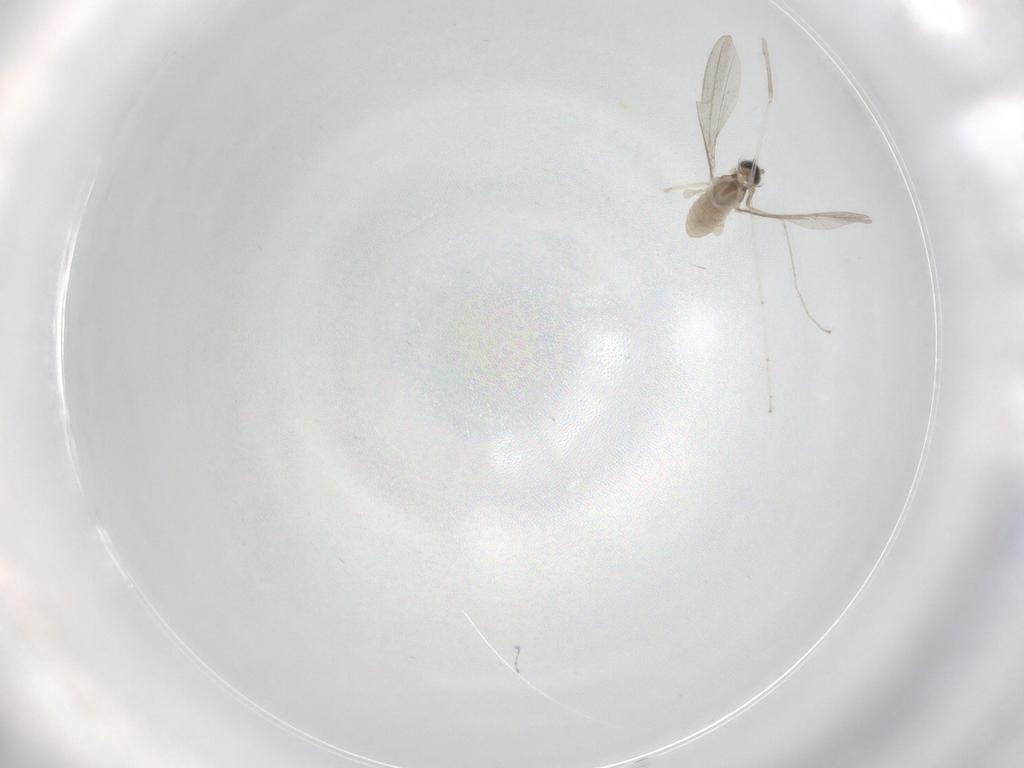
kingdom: Animalia
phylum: Arthropoda
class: Insecta
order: Diptera
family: Cecidomyiidae
